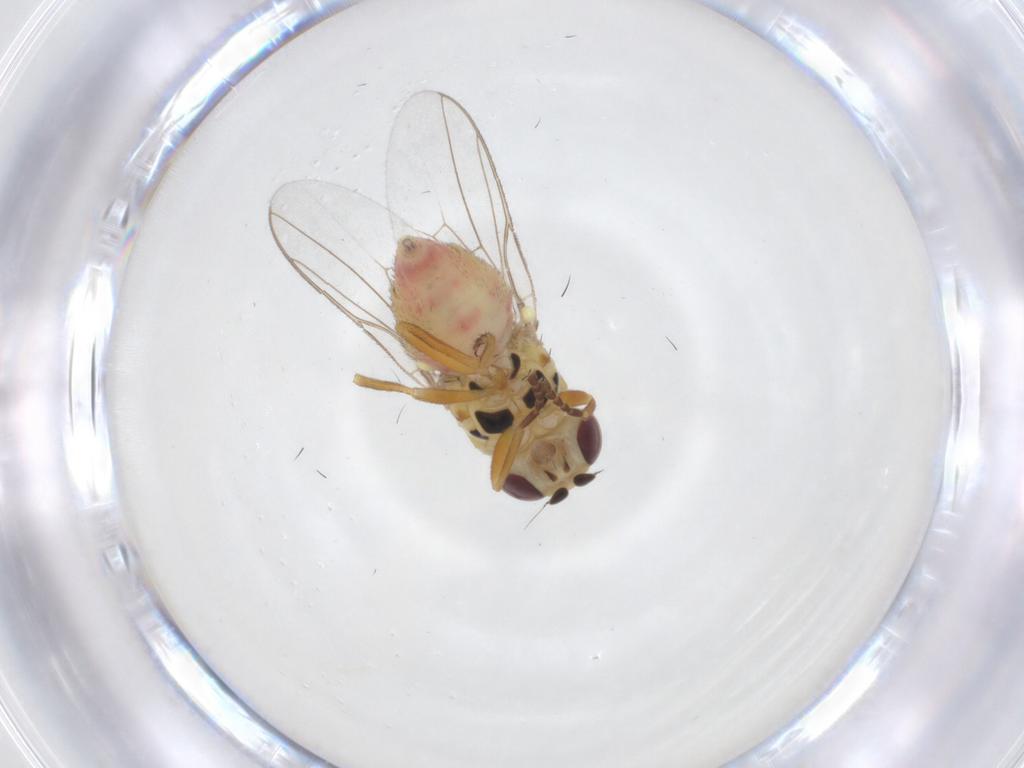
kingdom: Animalia
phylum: Arthropoda
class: Insecta
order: Diptera
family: Chloropidae
